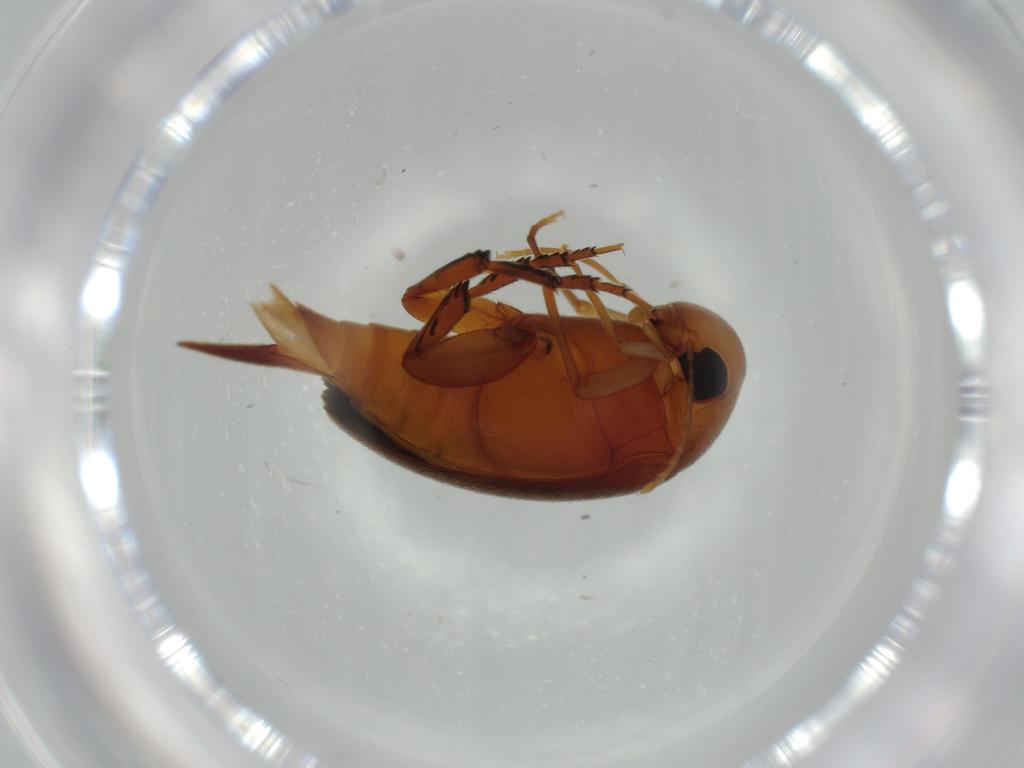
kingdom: Animalia
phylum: Arthropoda
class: Insecta
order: Coleoptera
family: Mordellidae
